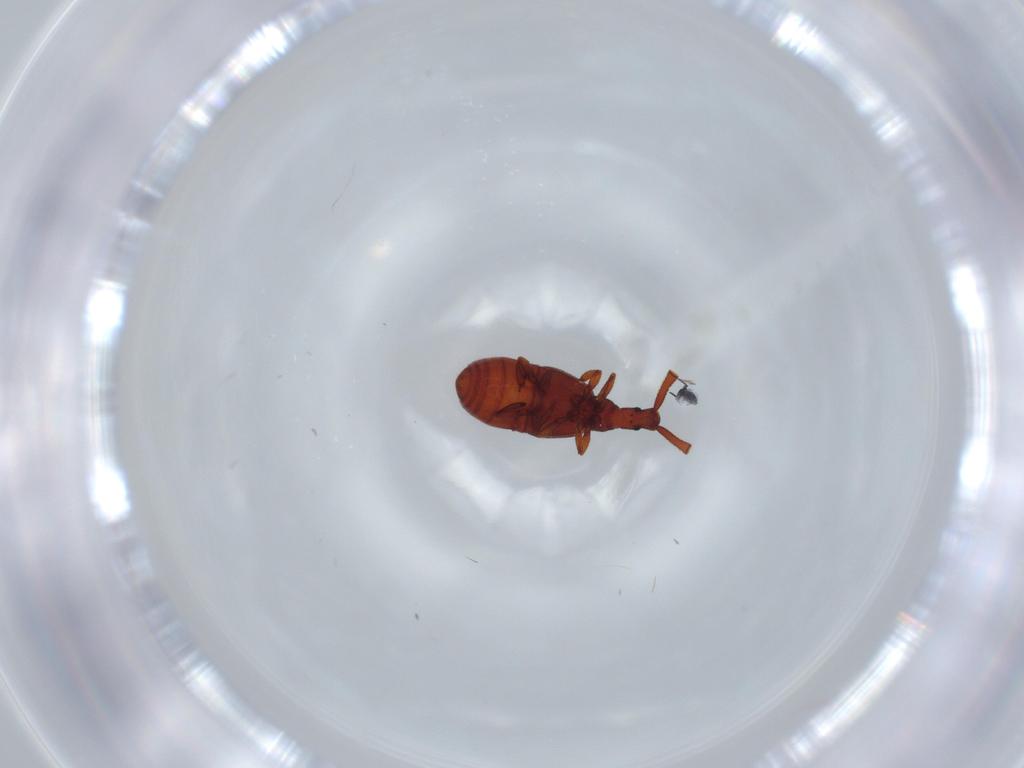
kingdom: Animalia
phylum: Arthropoda
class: Insecta
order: Coleoptera
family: Staphylinidae
